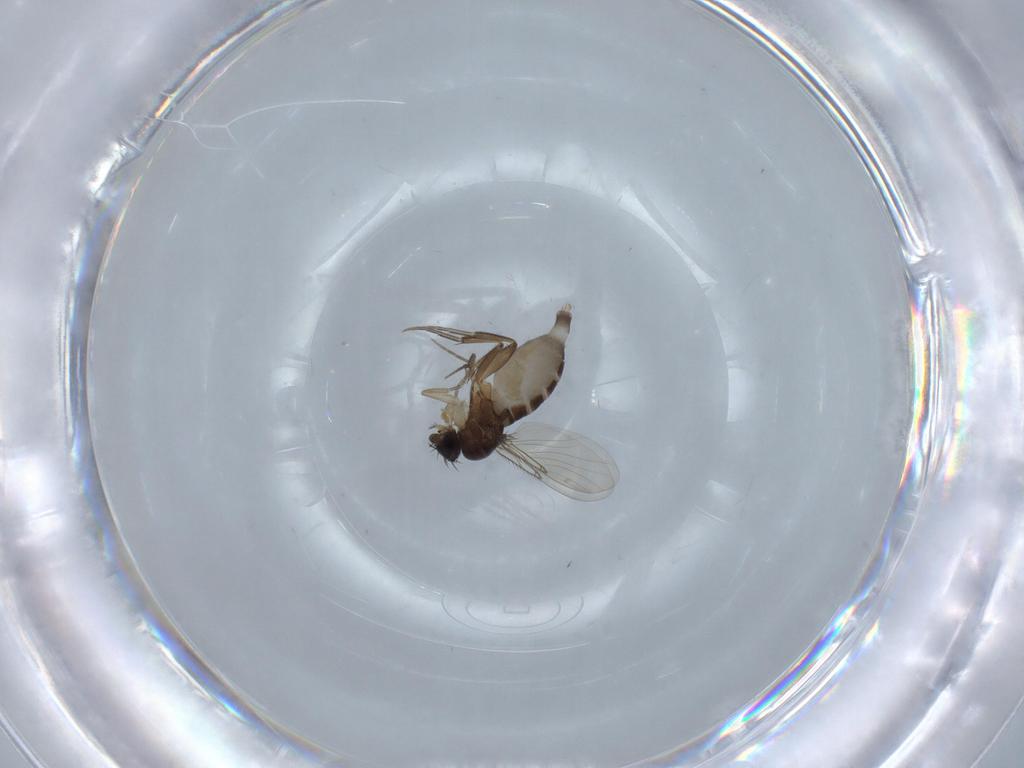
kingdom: Animalia
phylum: Arthropoda
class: Insecta
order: Diptera
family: Phoridae
